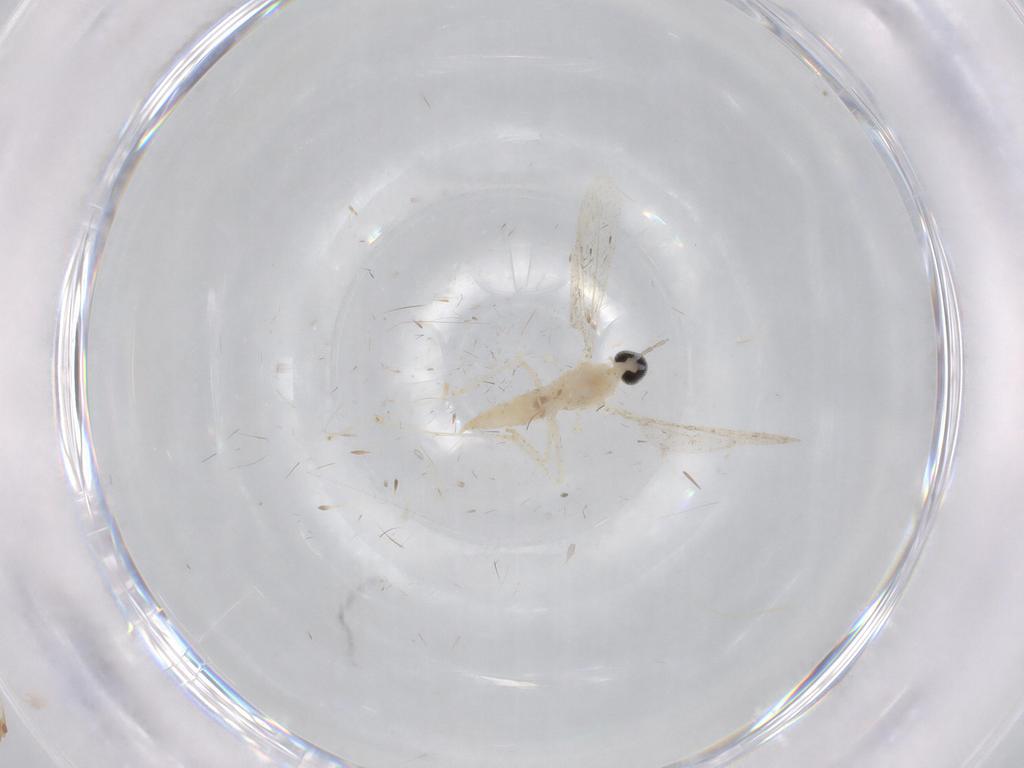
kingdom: Animalia
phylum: Arthropoda
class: Insecta
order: Diptera
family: Cecidomyiidae
